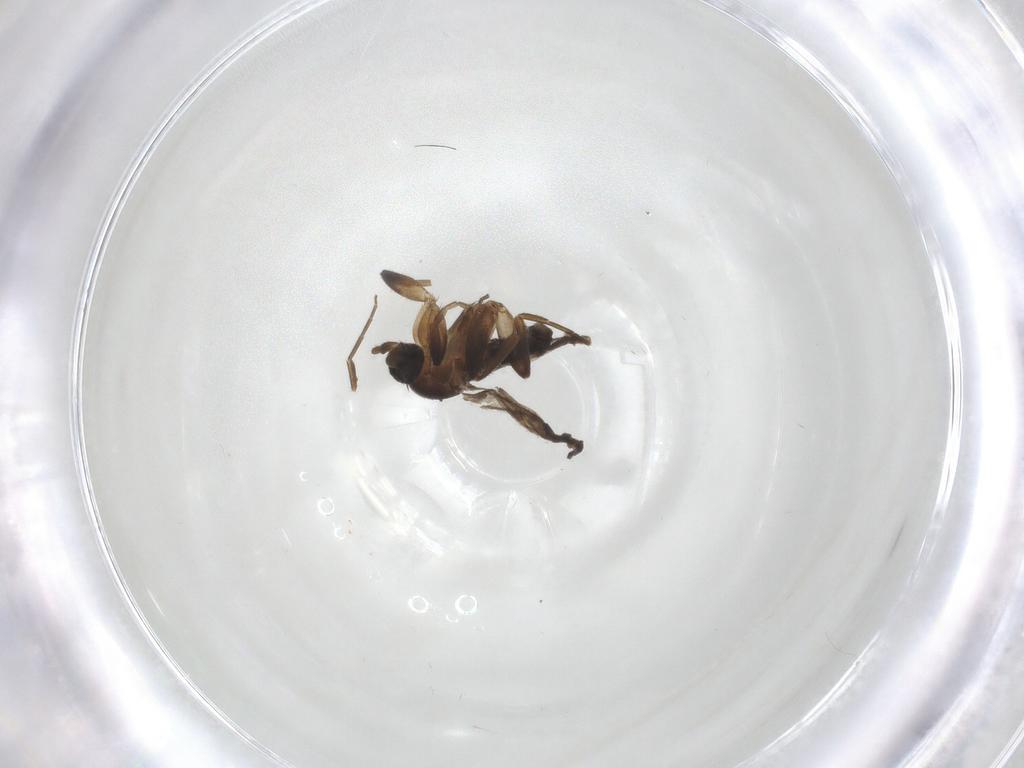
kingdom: Animalia
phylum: Arthropoda
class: Insecta
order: Diptera
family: Phoridae
